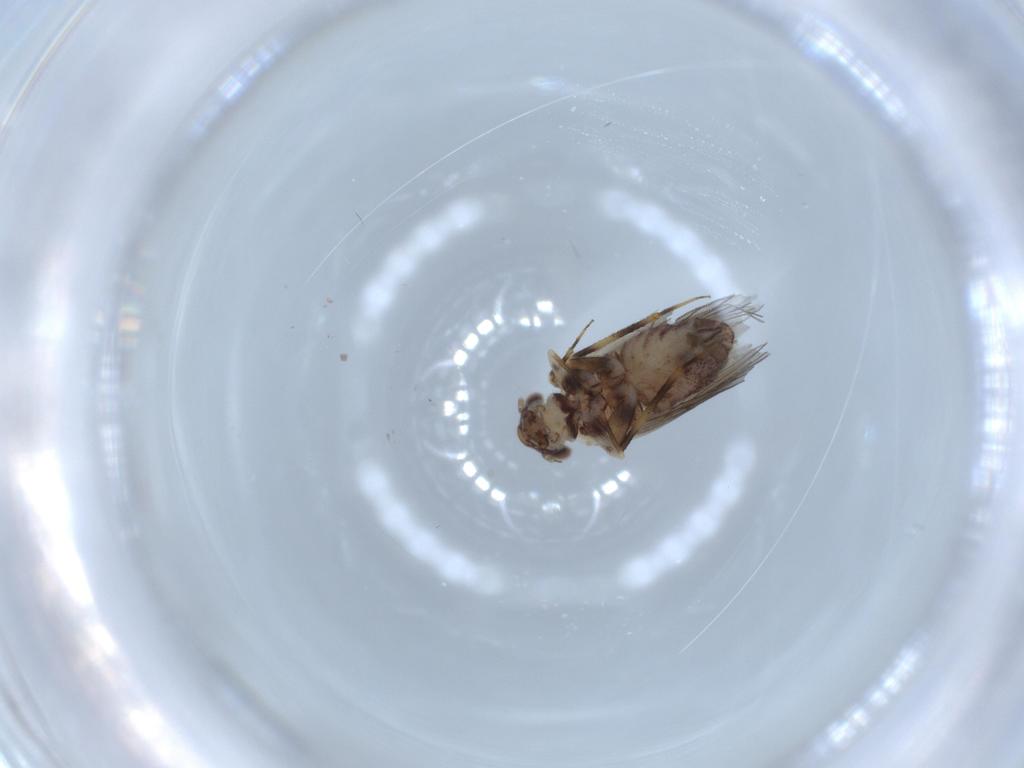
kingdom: Animalia
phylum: Arthropoda
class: Insecta
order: Psocodea
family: Lepidopsocidae
